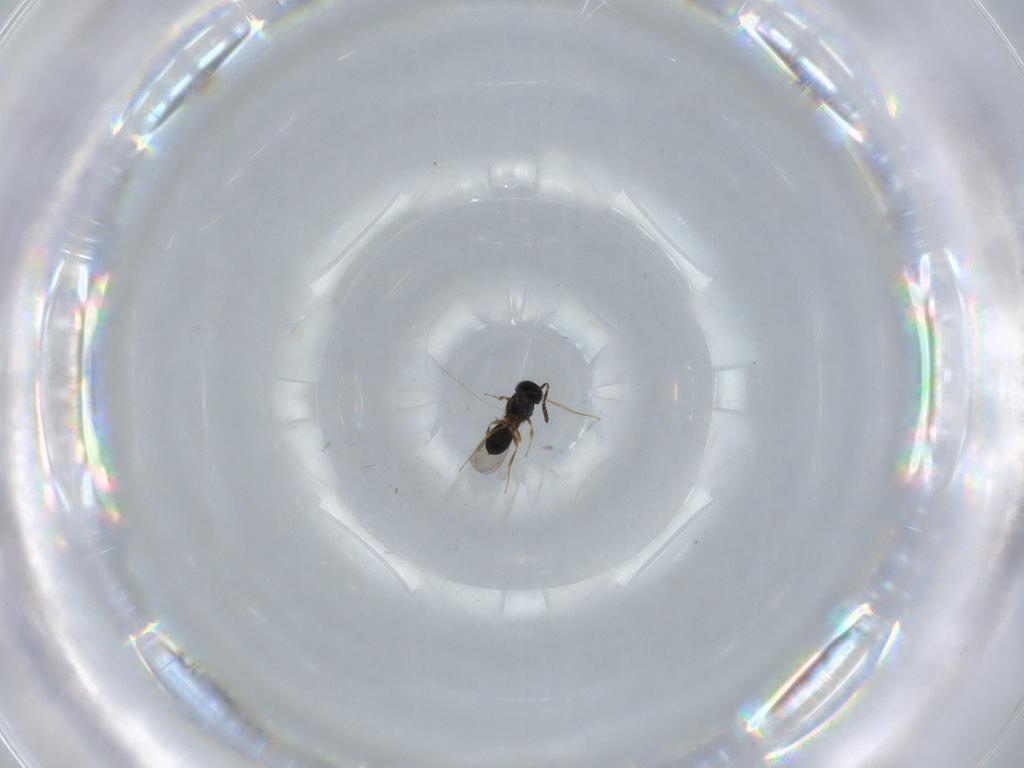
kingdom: Animalia
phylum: Arthropoda
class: Insecta
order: Hymenoptera
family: Scelionidae
